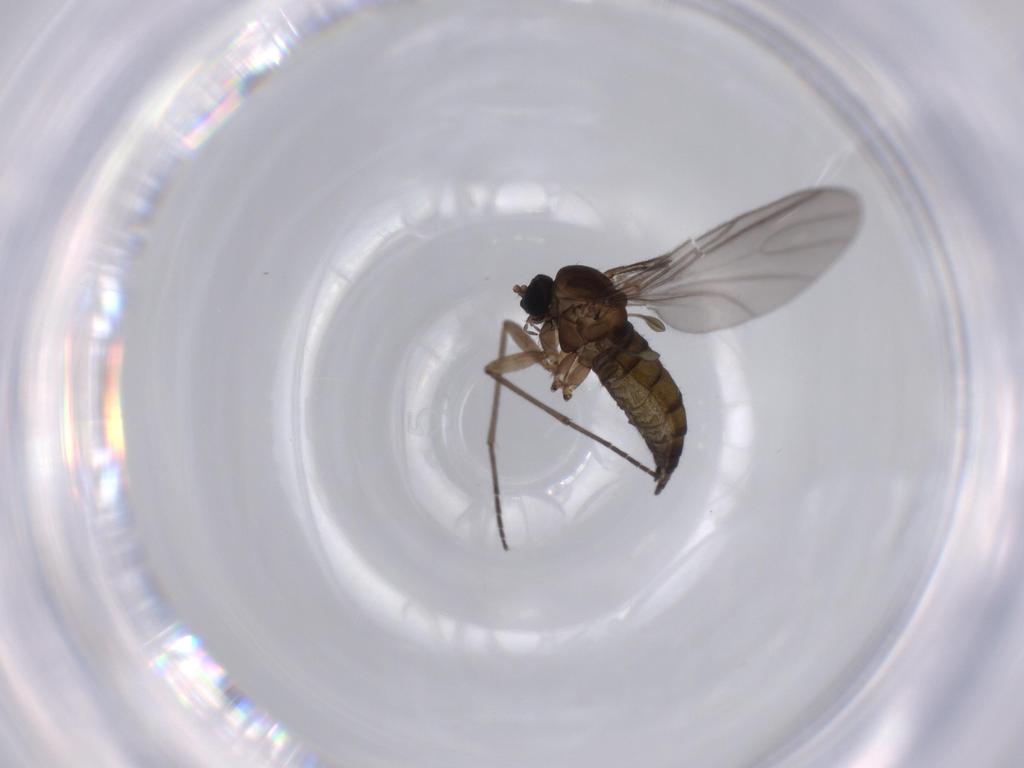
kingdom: Animalia
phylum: Arthropoda
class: Insecta
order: Diptera
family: Sciaridae
